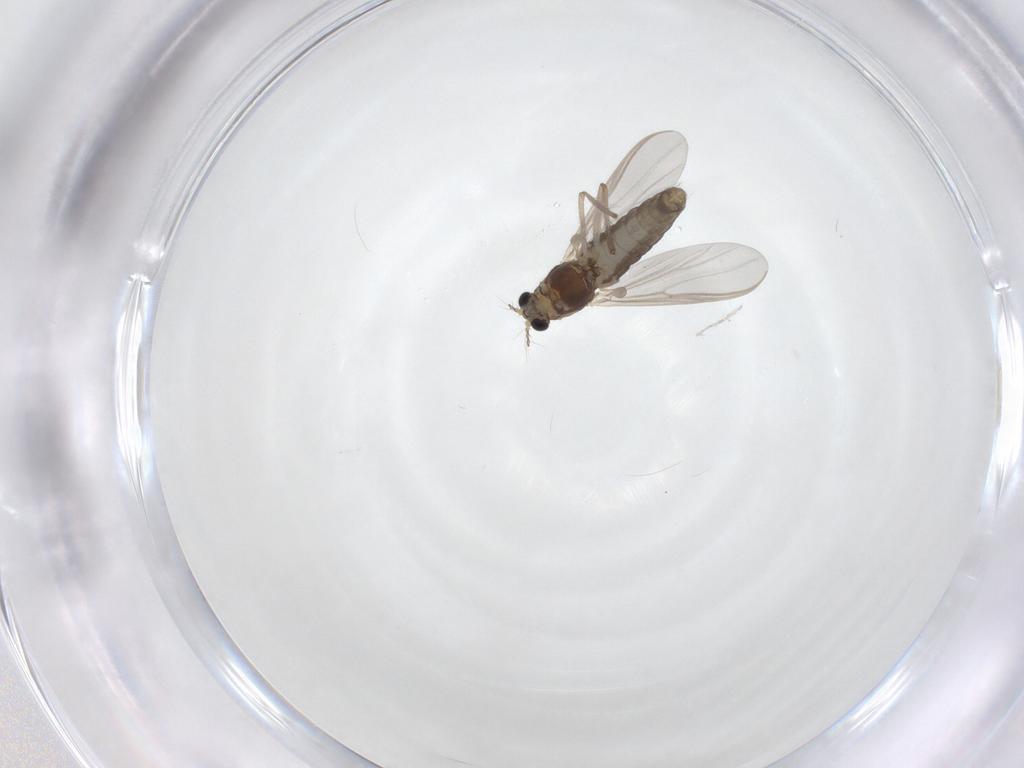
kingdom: Animalia
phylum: Arthropoda
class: Insecta
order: Diptera
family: Chironomidae
